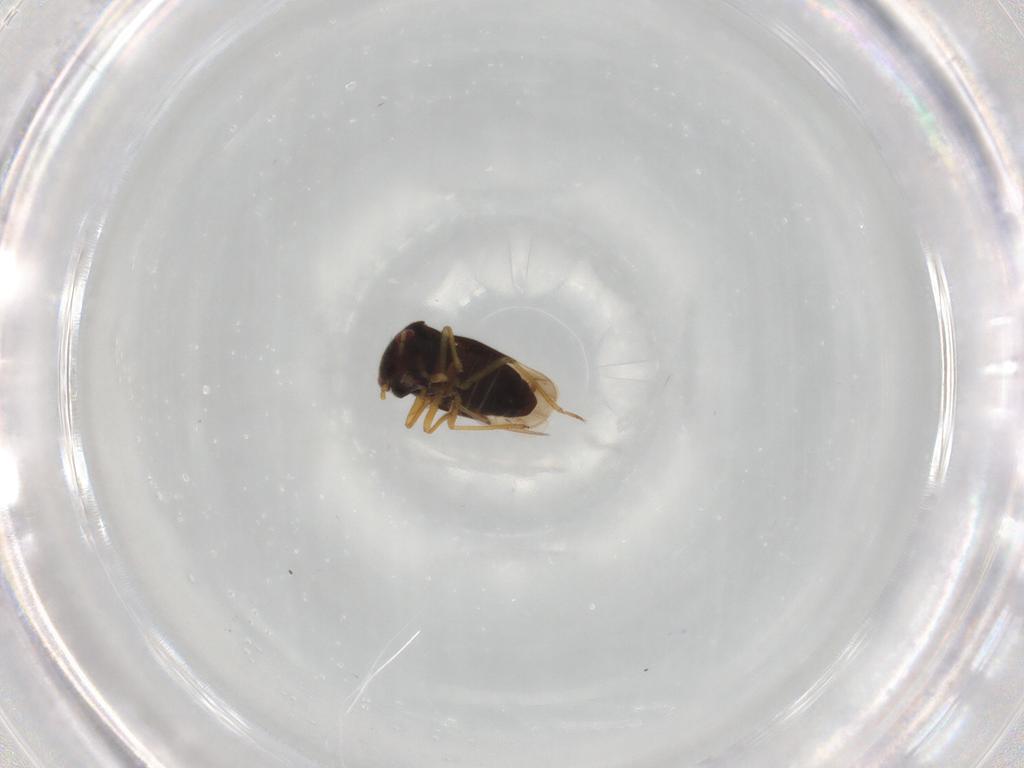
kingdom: Animalia
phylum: Arthropoda
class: Insecta
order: Hemiptera
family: Schizopteridae
